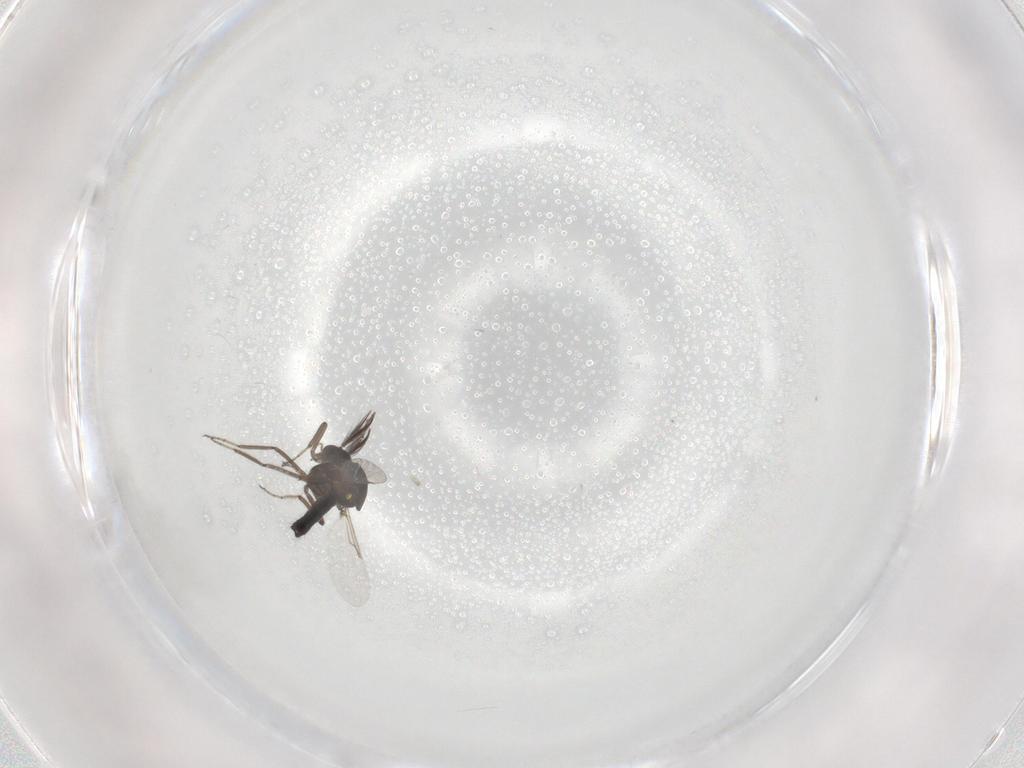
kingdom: Animalia
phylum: Arthropoda
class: Insecta
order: Diptera
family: Ceratopogonidae
